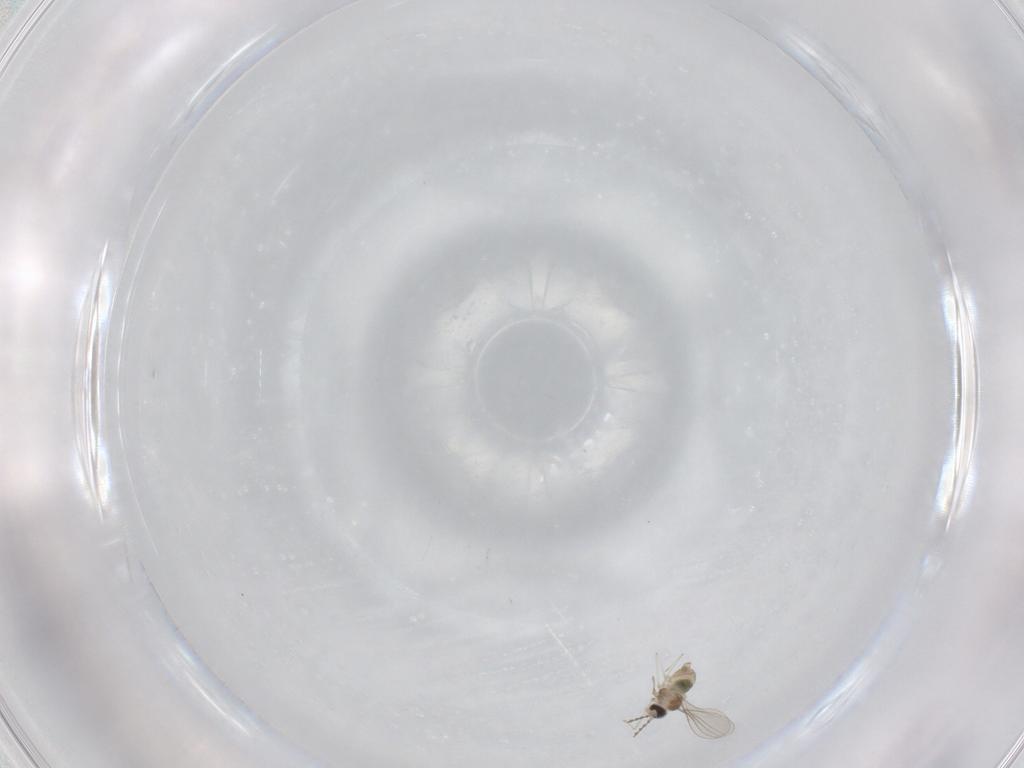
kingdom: Animalia
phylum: Arthropoda
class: Insecta
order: Diptera
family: Cecidomyiidae
